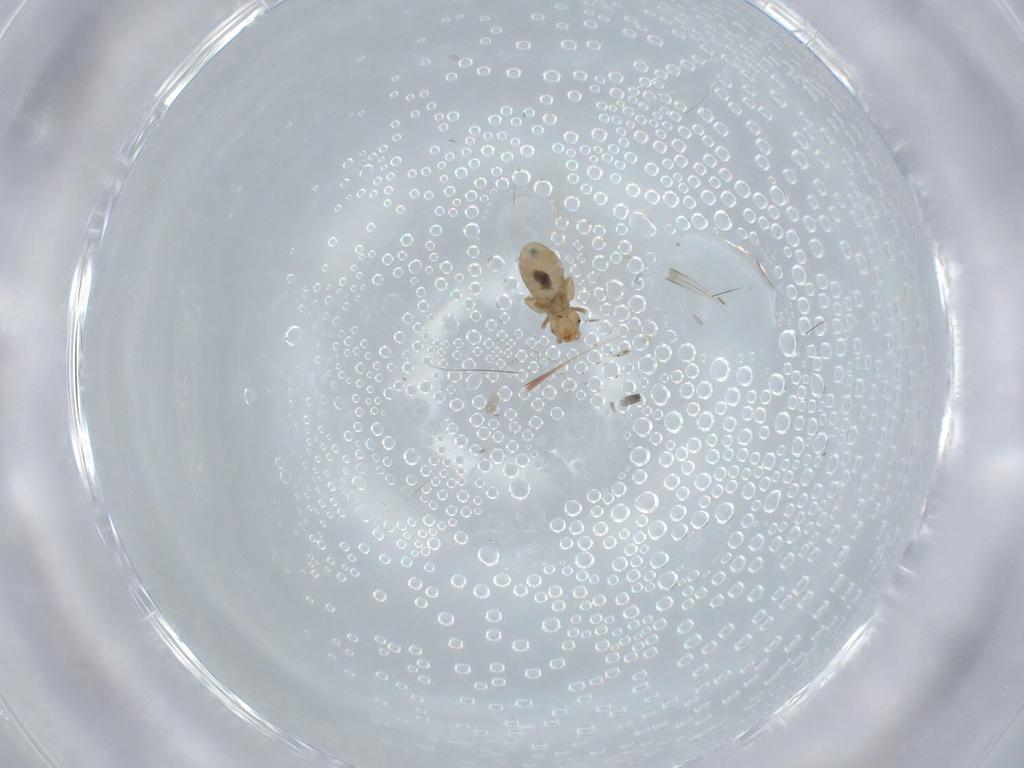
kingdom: Animalia
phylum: Arthropoda
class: Insecta
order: Psocodea
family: Liposcelididae
